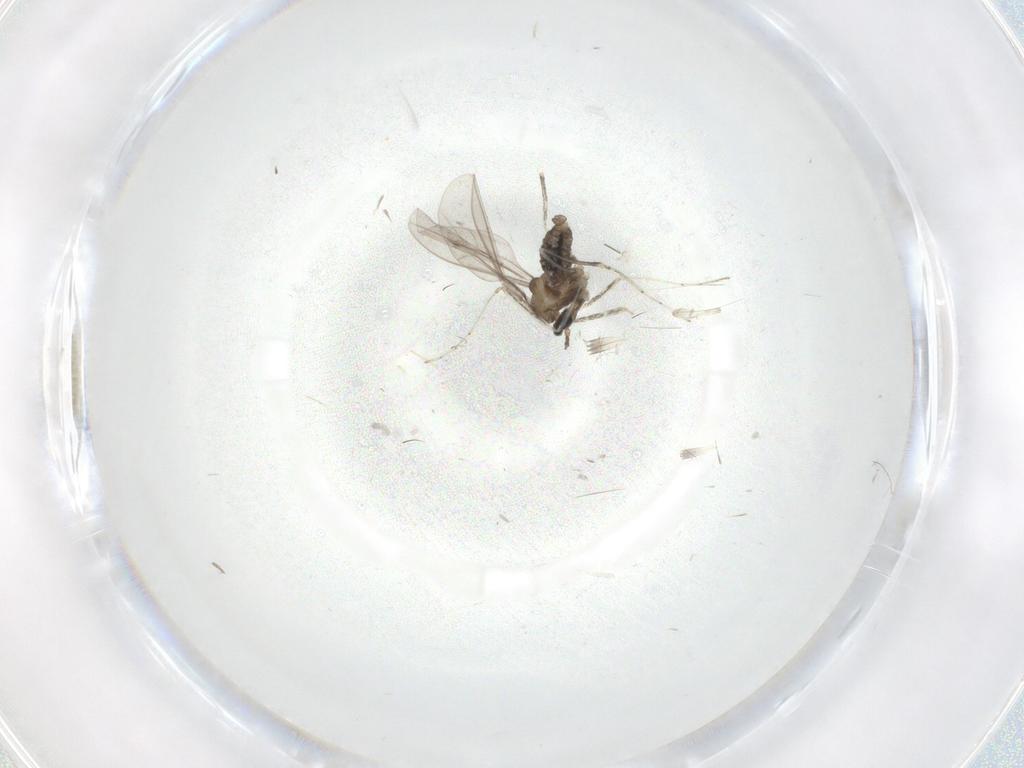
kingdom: Animalia
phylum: Arthropoda
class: Insecta
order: Diptera
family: Cecidomyiidae
